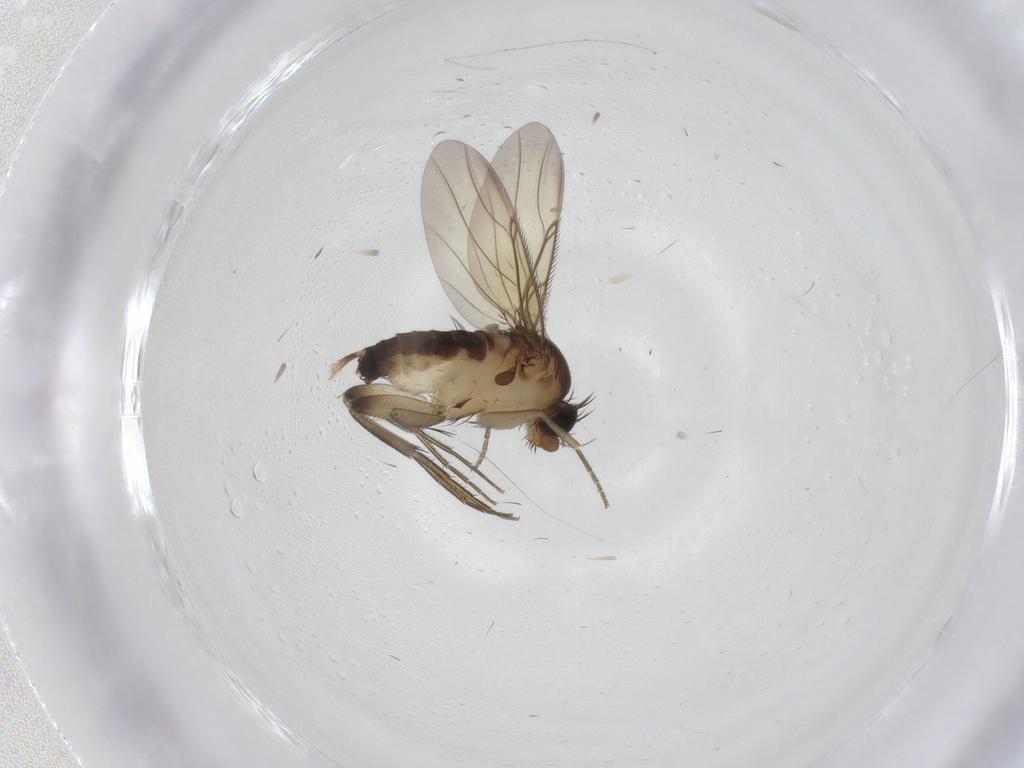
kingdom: Animalia
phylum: Arthropoda
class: Insecta
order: Diptera
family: Phoridae
